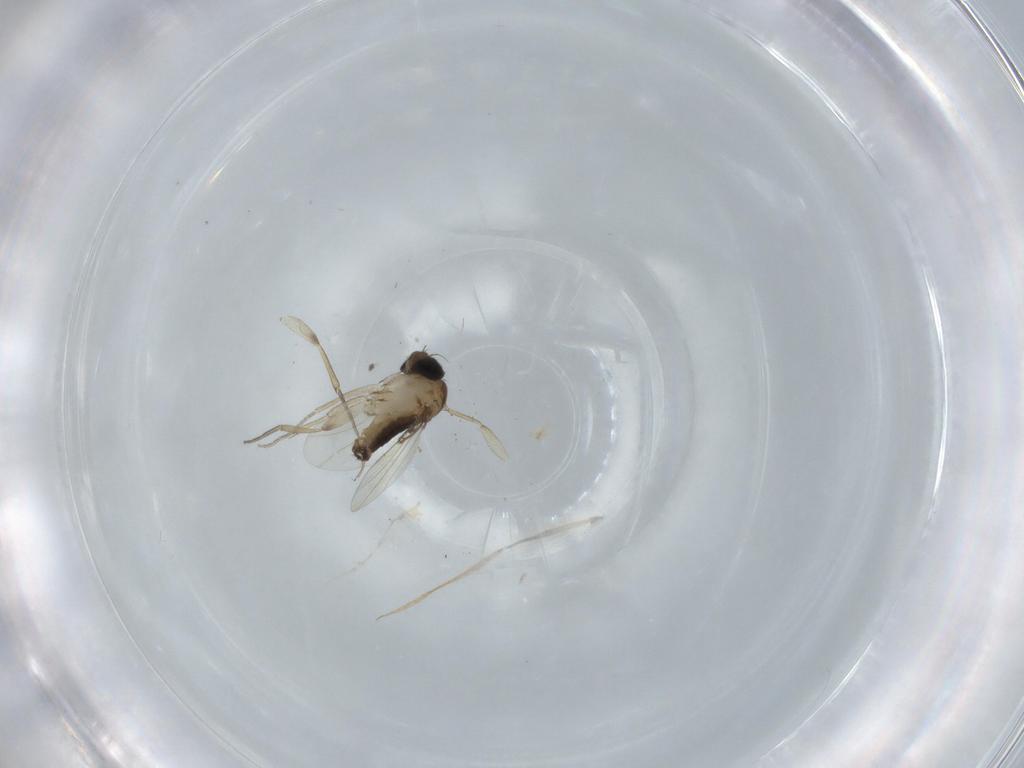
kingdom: Animalia
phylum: Arthropoda
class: Insecta
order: Diptera
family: Phoridae
